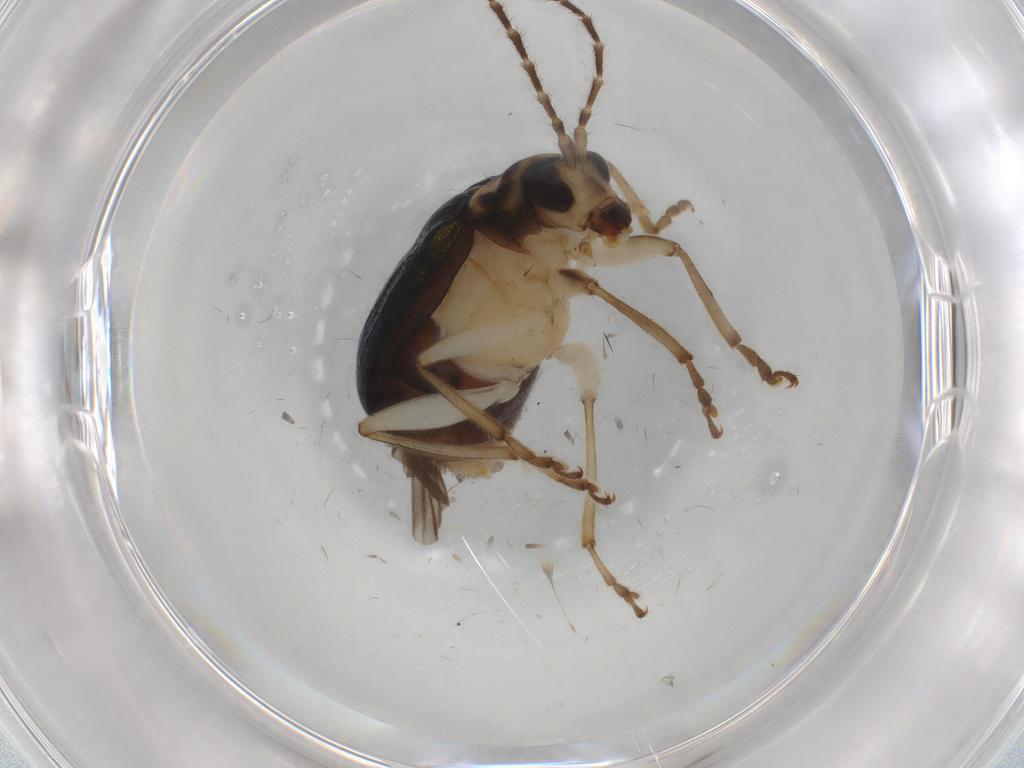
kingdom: Animalia
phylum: Arthropoda
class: Insecta
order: Coleoptera
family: Chrysomelidae
